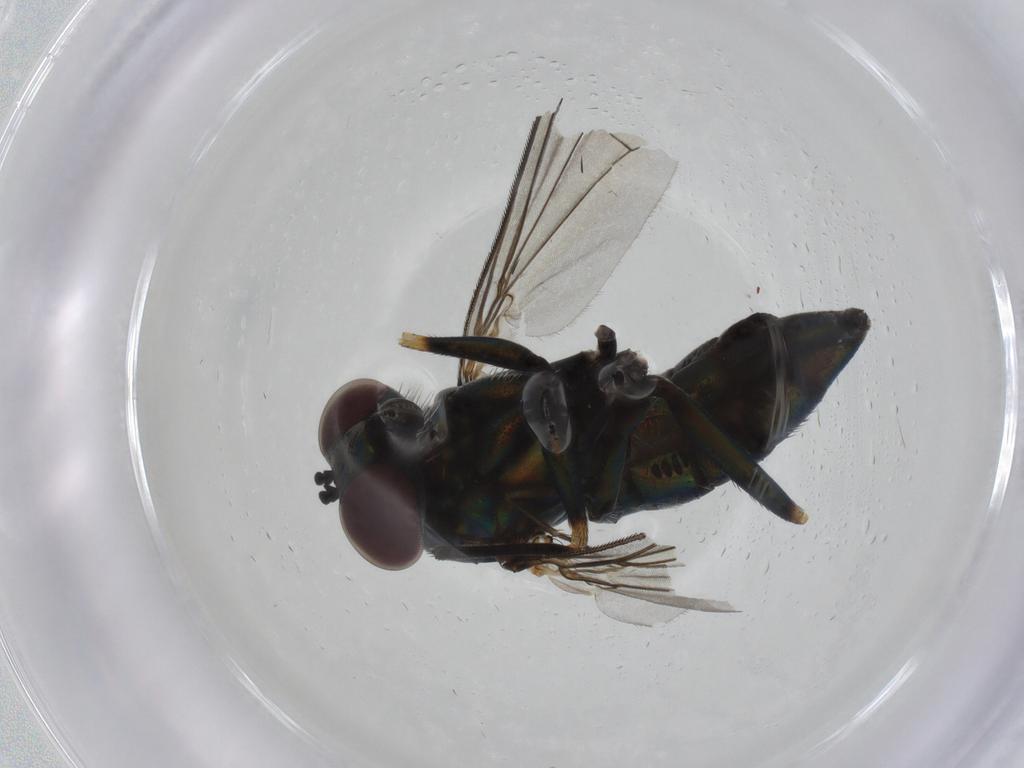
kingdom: Animalia
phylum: Arthropoda
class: Insecta
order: Diptera
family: Dolichopodidae
